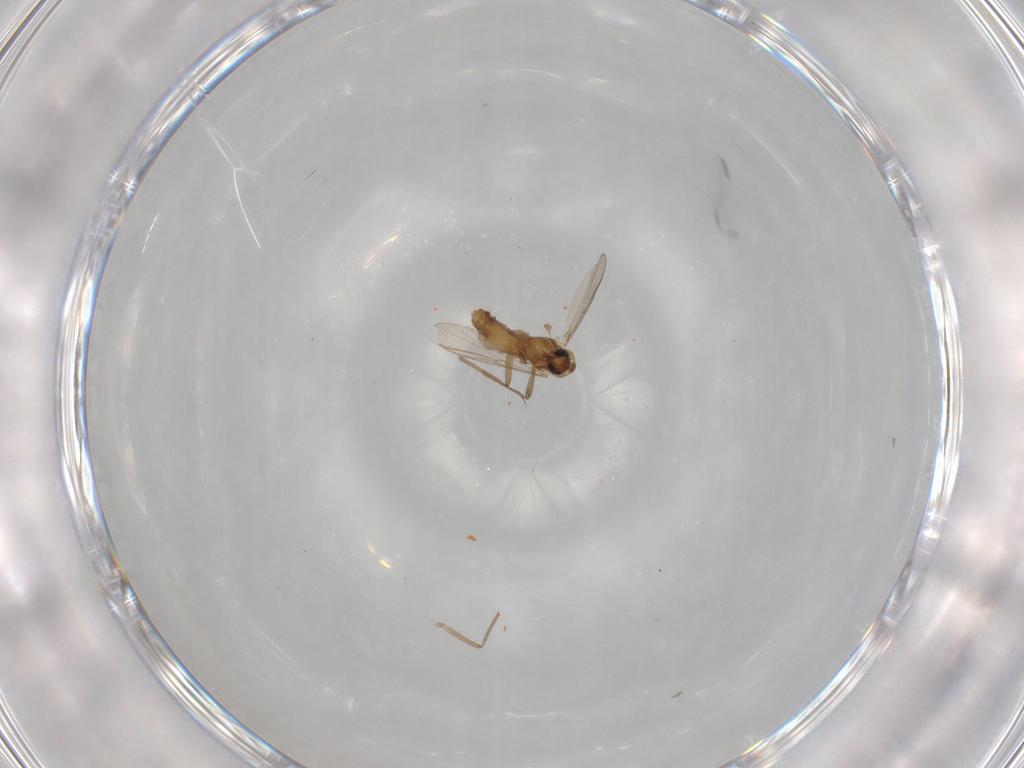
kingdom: Animalia
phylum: Arthropoda
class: Insecta
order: Diptera
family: Chironomidae
